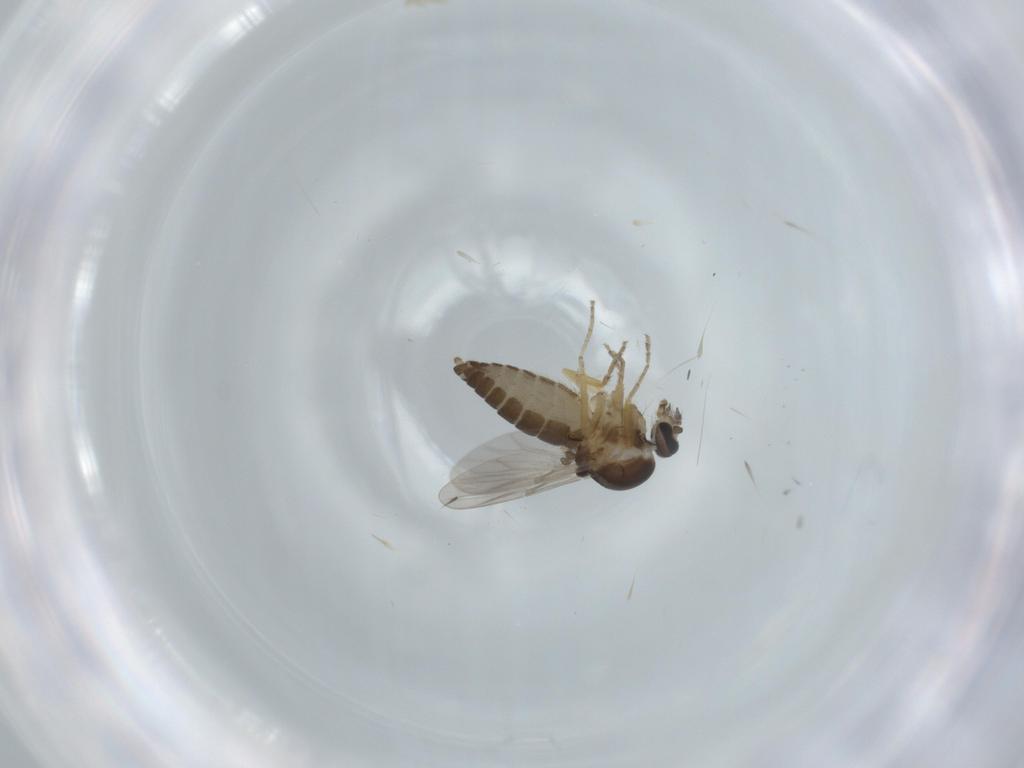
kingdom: Animalia
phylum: Arthropoda
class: Insecta
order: Diptera
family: Ceratopogonidae
